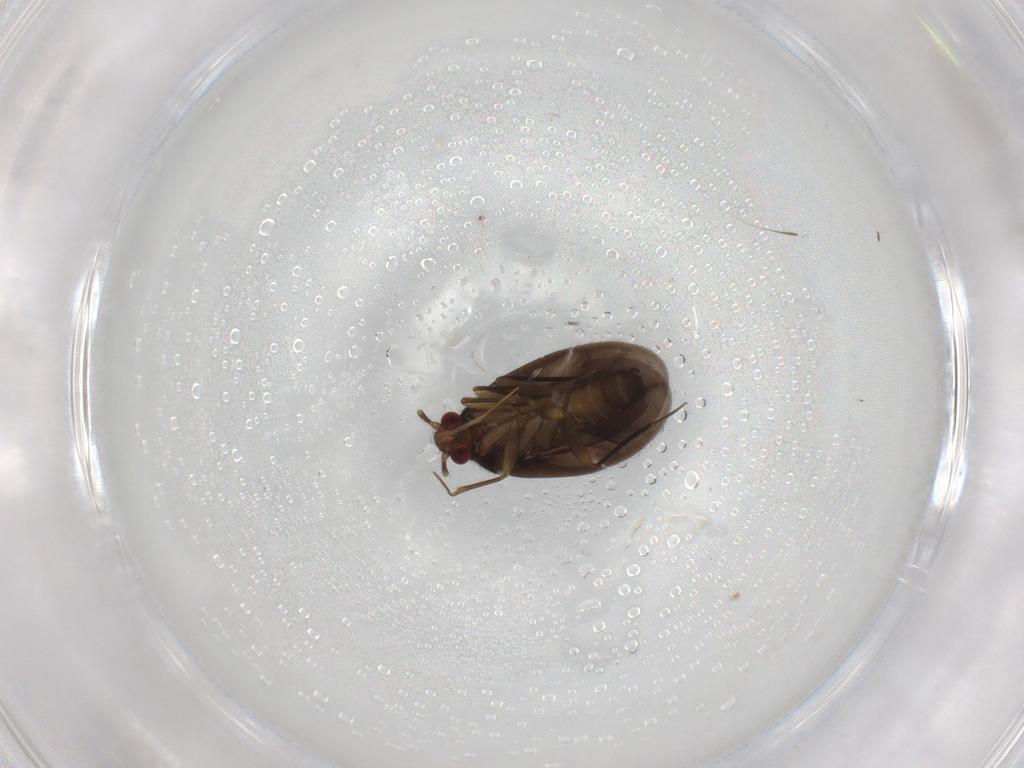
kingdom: Animalia
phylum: Arthropoda
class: Insecta
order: Hemiptera
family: Ceratocombidae
